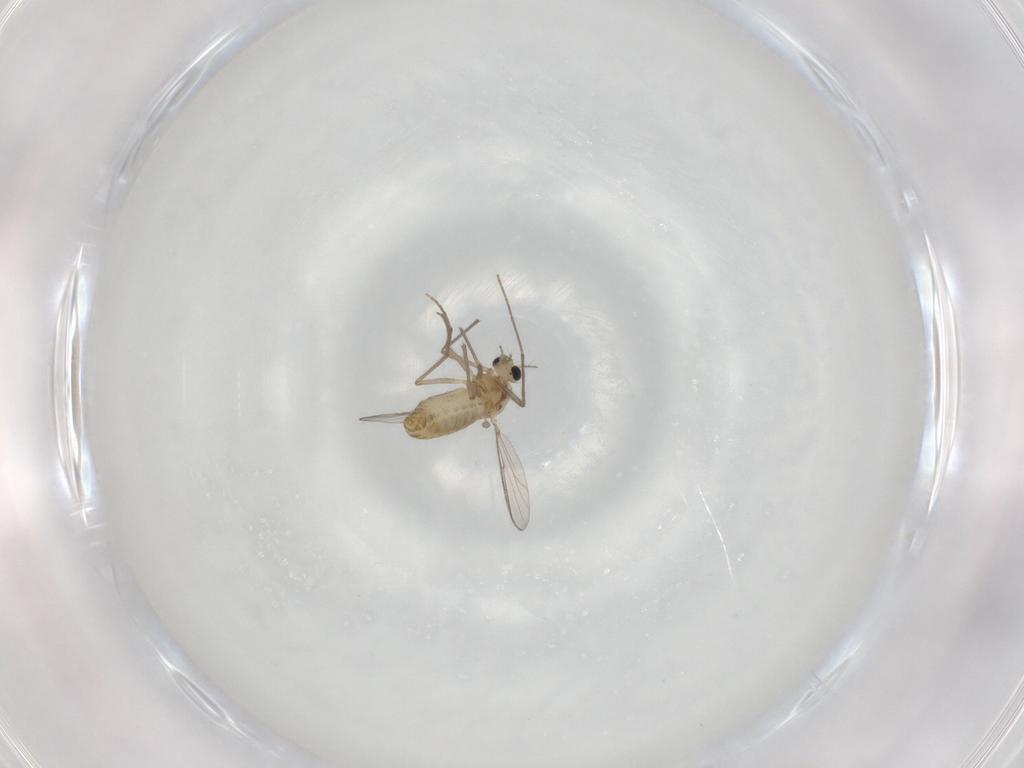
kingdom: Animalia
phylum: Arthropoda
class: Insecta
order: Diptera
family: Chironomidae
